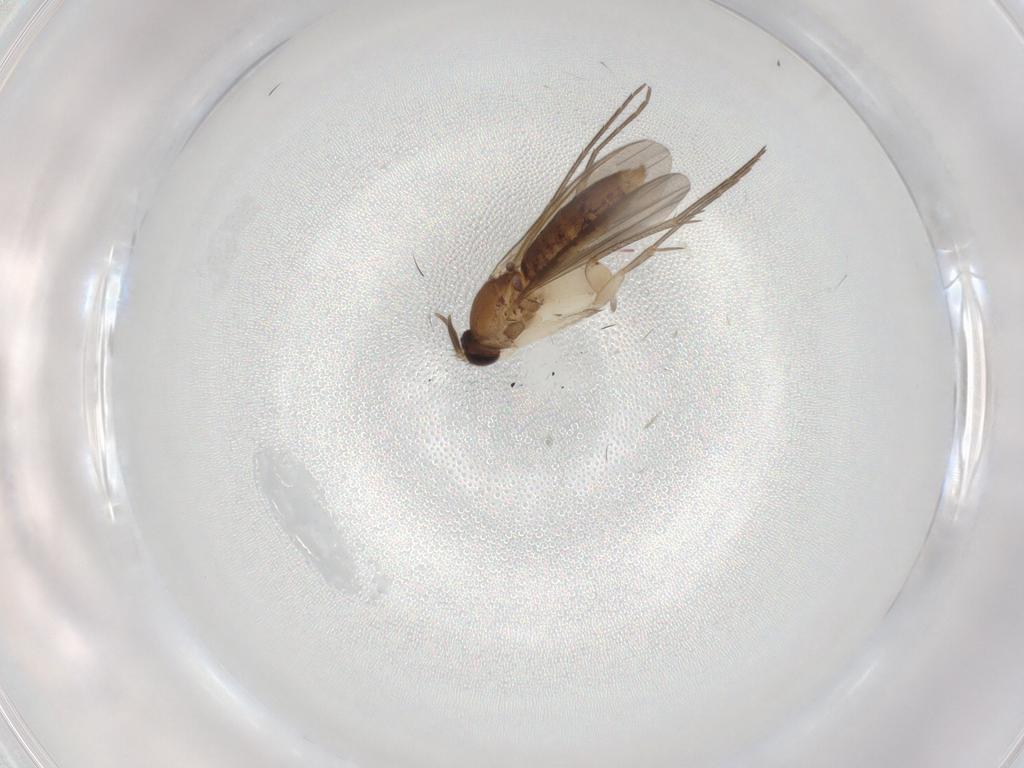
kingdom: Animalia
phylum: Arthropoda
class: Insecta
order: Diptera
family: Mycetophilidae
